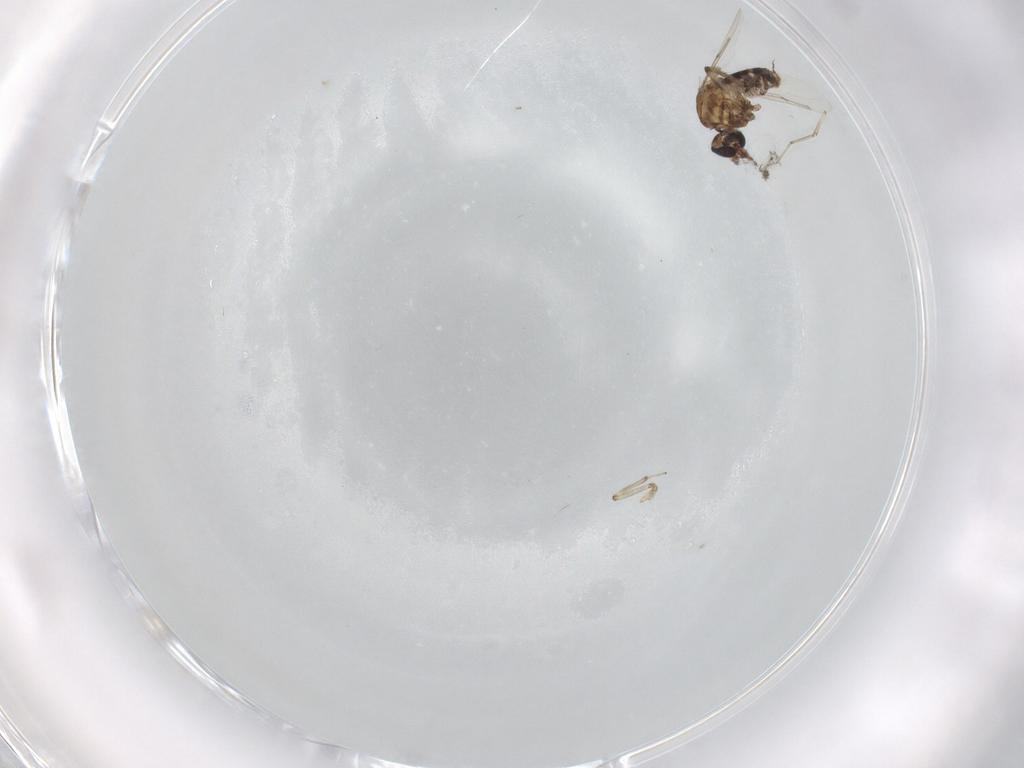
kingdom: Animalia
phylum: Arthropoda
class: Insecta
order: Diptera
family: Ceratopogonidae
